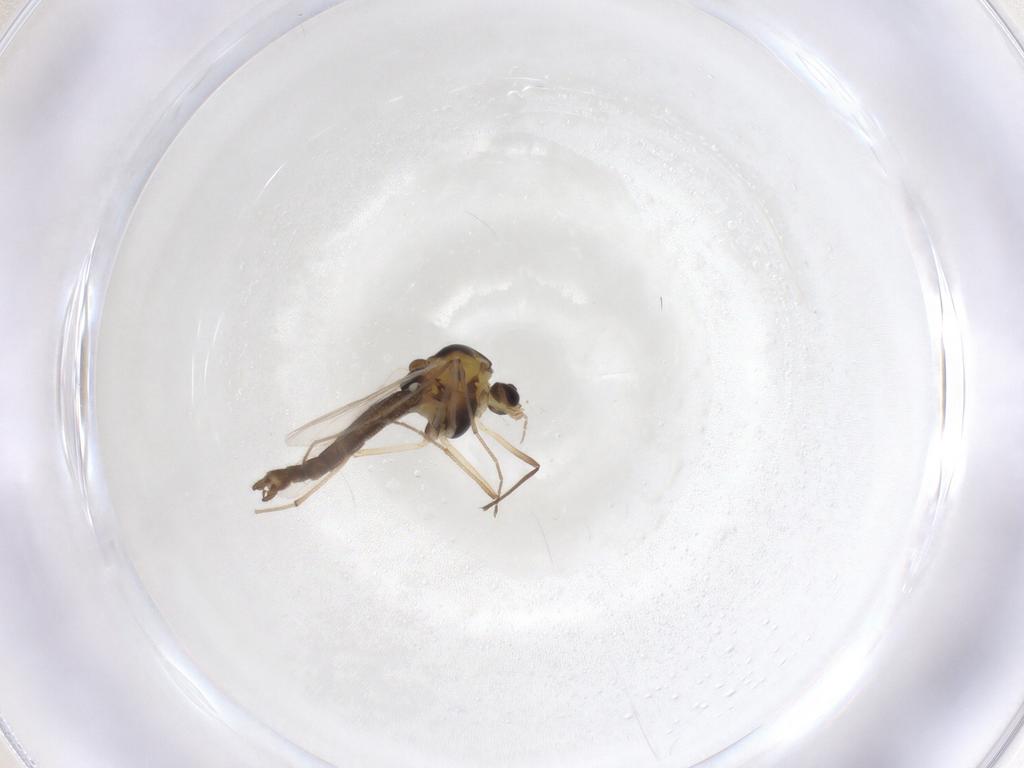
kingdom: Animalia
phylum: Arthropoda
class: Insecta
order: Diptera
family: Chironomidae
